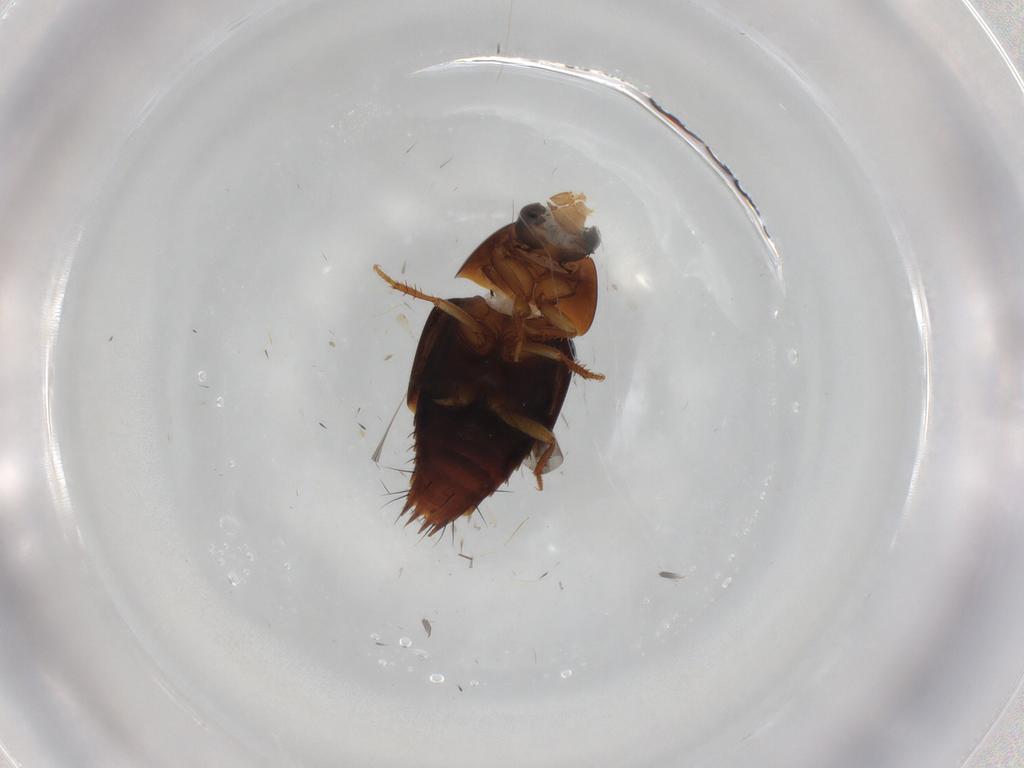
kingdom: Animalia
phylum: Arthropoda
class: Insecta
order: Coleoptera
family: Staphylinidae
